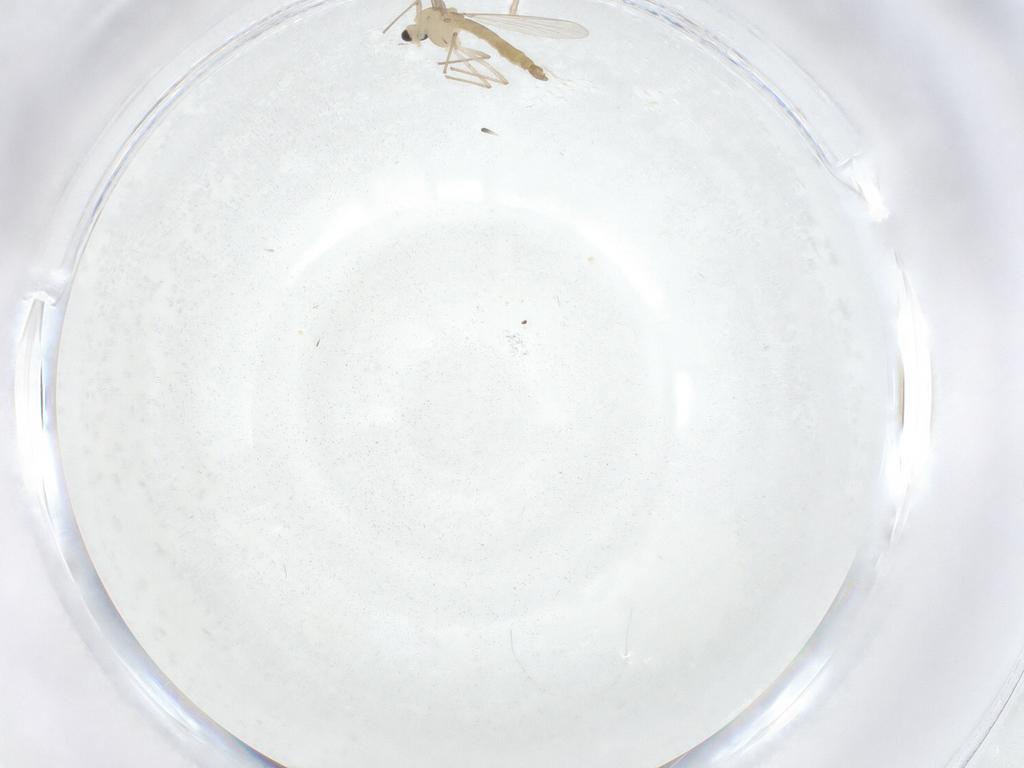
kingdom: Animalia
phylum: Arthropoda
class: Insecta
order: Diptera
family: Chironomidae
